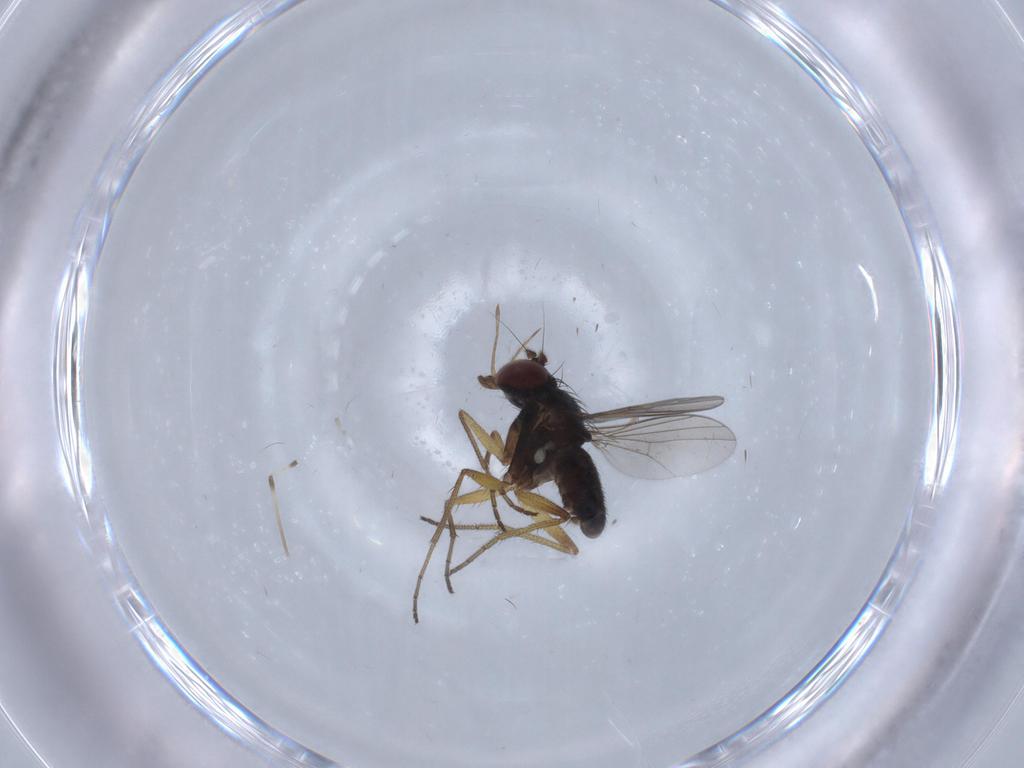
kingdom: Animalia
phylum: Arthropoda
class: Insecta
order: Diptera
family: Dolichopodidae
